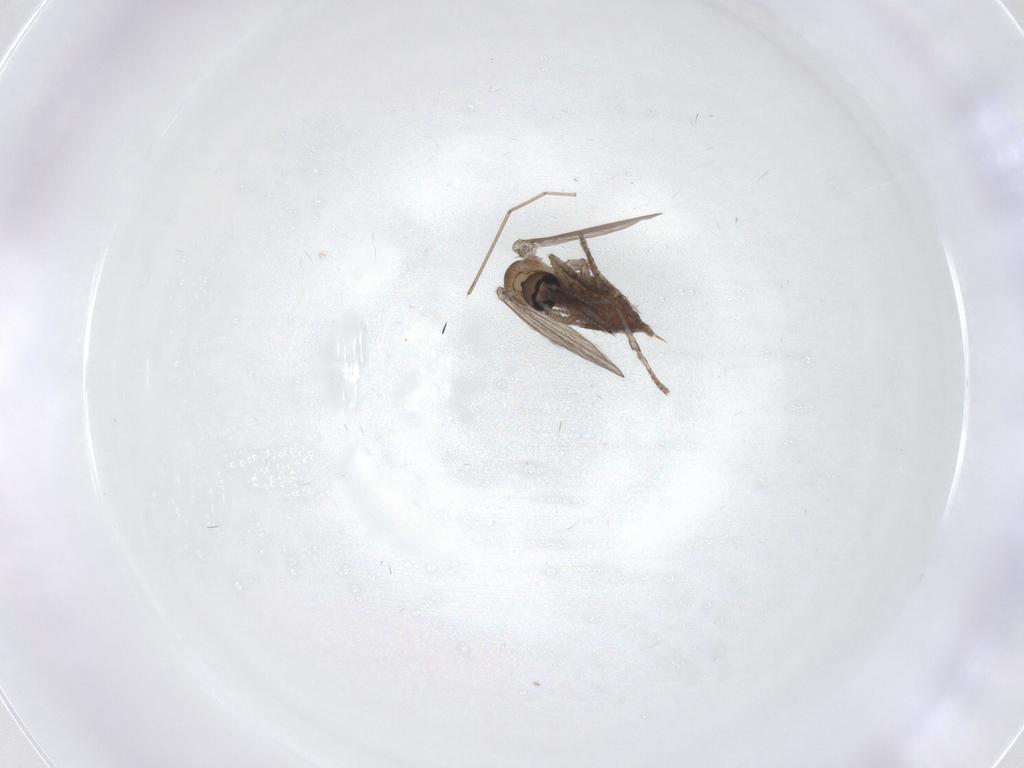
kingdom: Animalia
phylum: Arthropoda
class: Insecta
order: Diptera
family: Psychodidae
